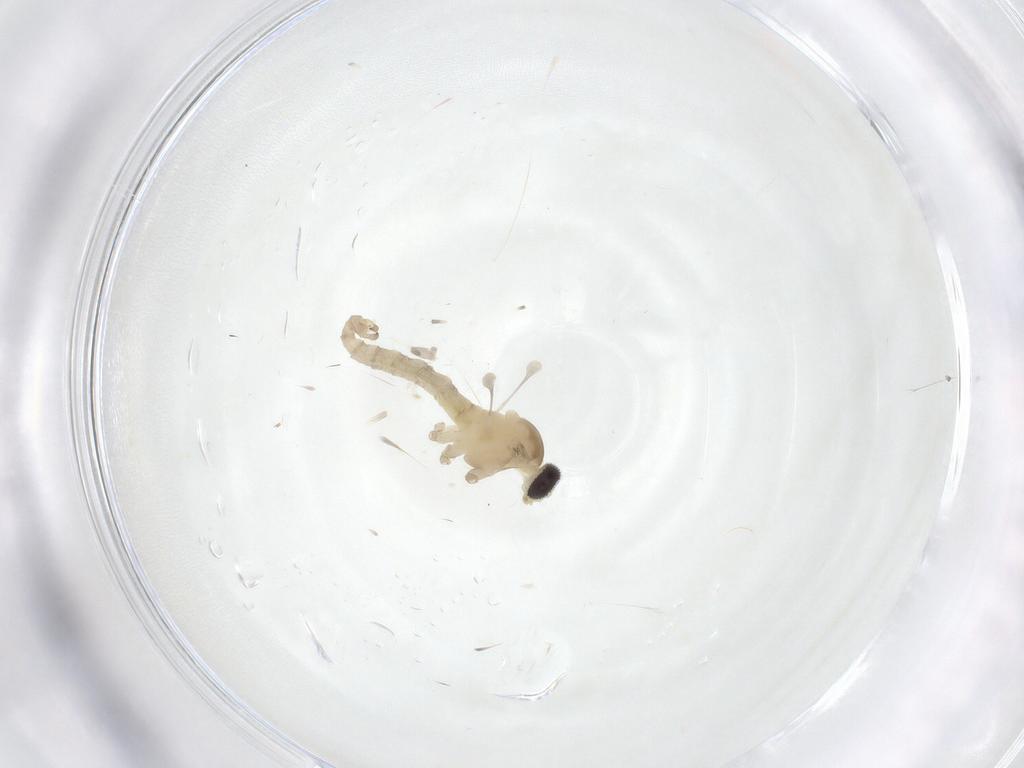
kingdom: Animalia
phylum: Arthropoda
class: Insecta
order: Diptera
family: Cecidomyiidae
